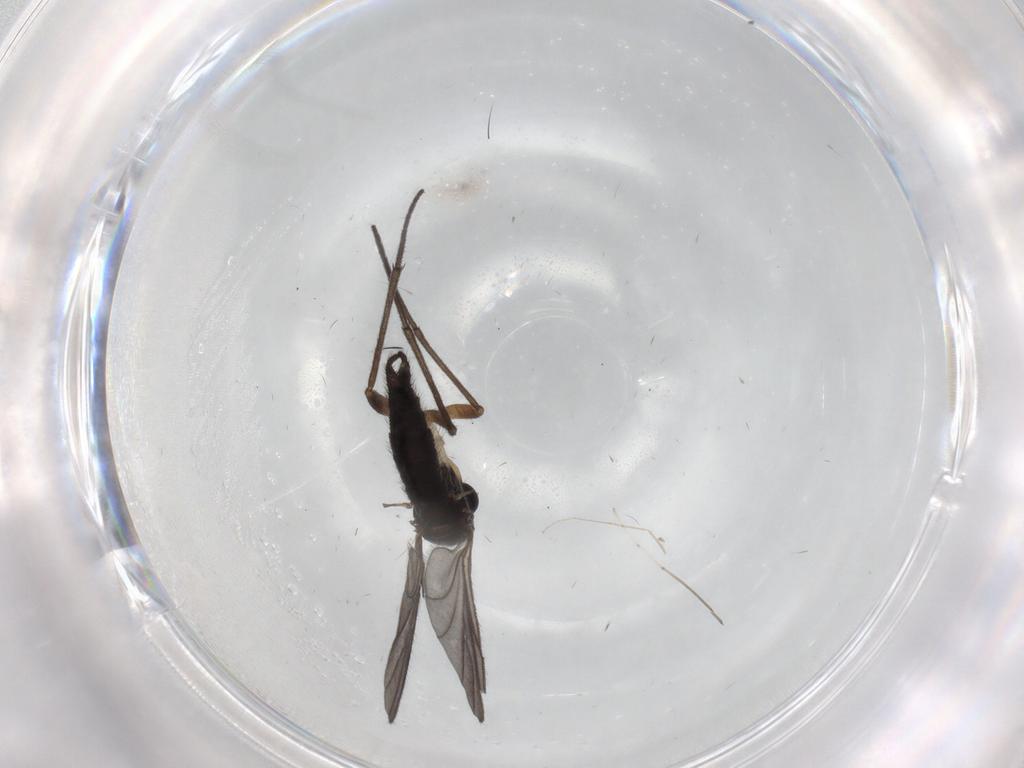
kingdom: Animalia
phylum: Arthropoda
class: Insecta
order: Diptera
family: Sciaridae
